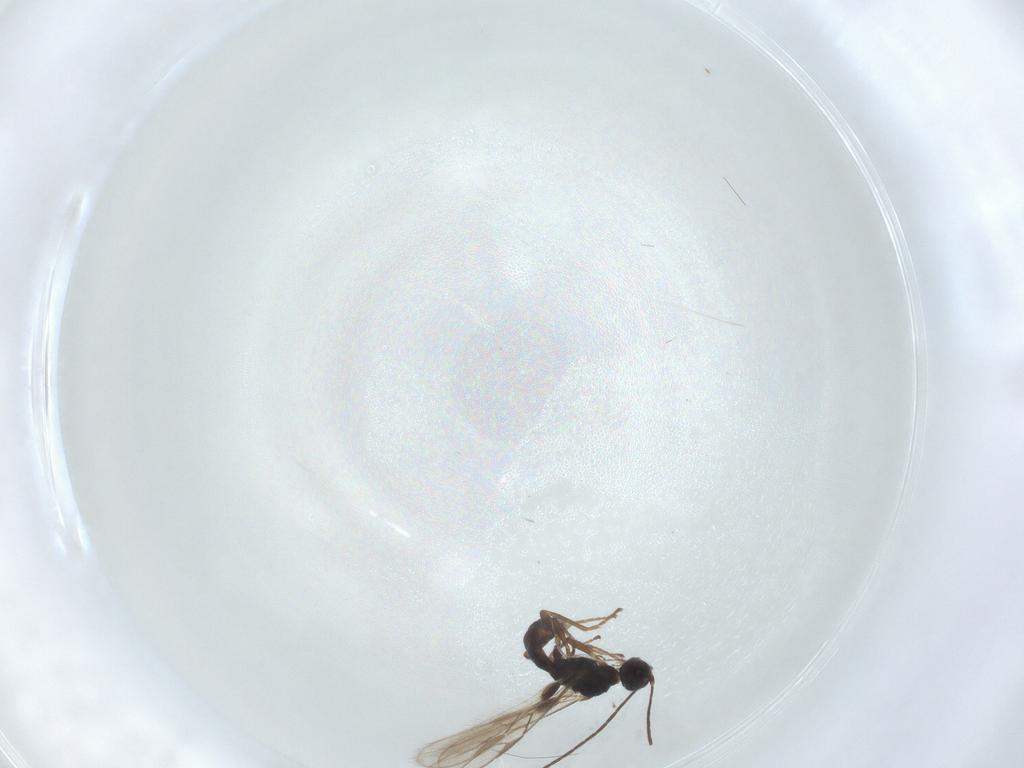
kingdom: Animalia
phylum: Arthropoda
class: Insecta
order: Hymenoptera
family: Braconidae
